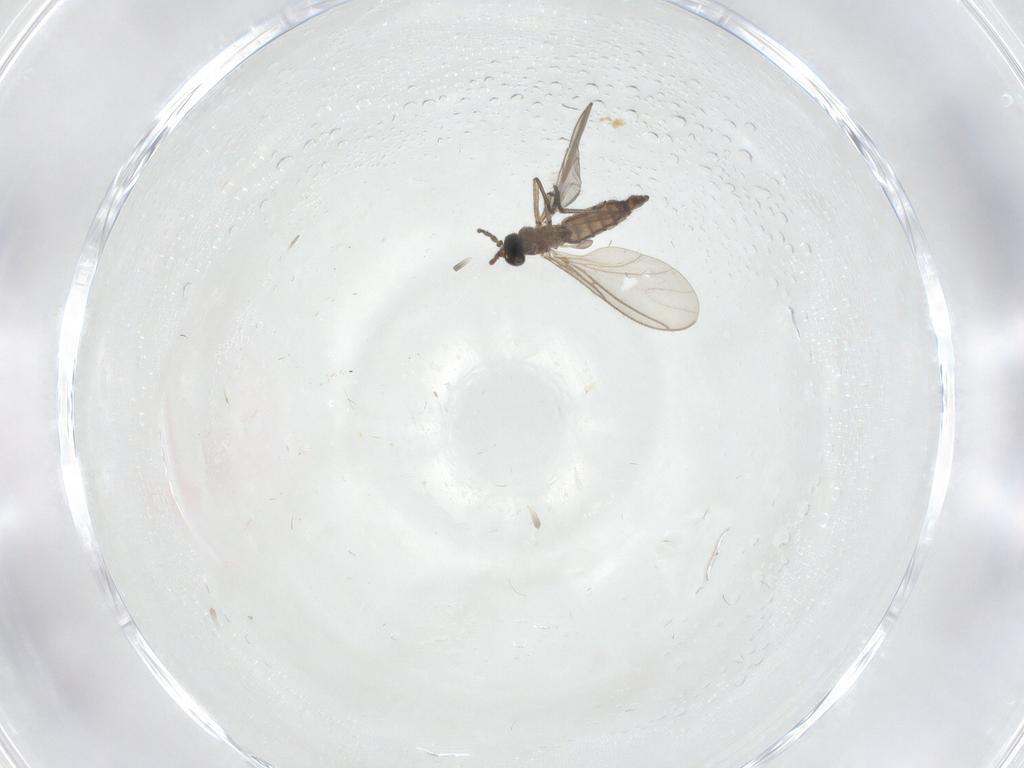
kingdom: Animalia
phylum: Arthropoda
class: Insecta
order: Diptera
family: Sciaridae
